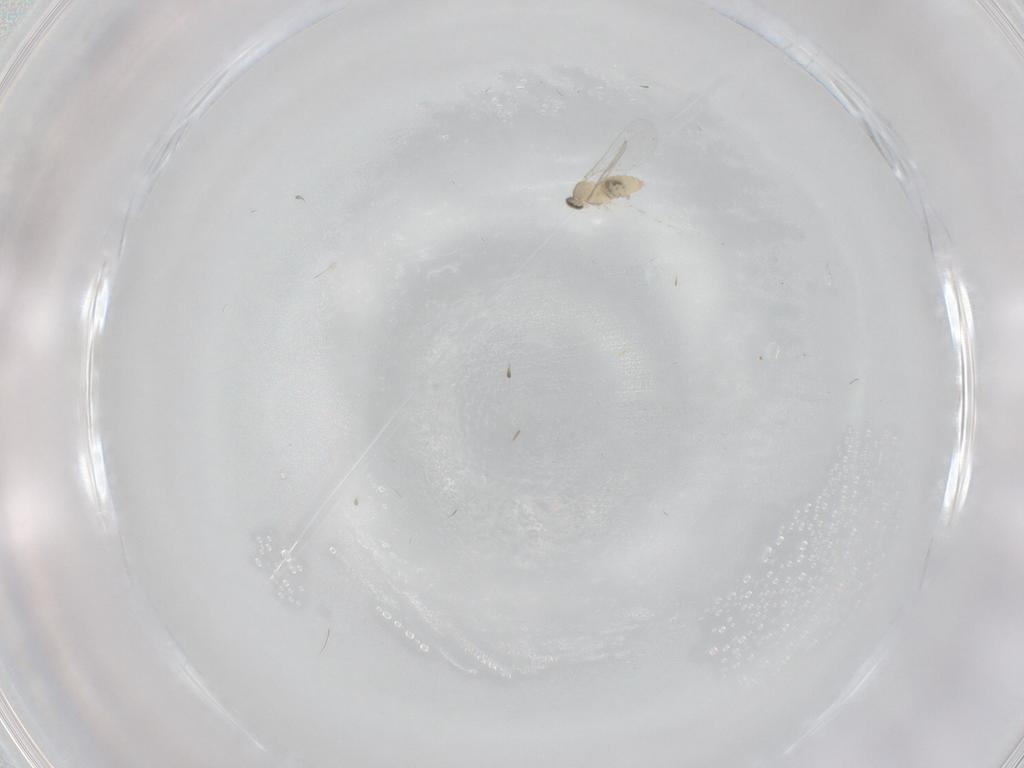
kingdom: Animalia
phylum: Arthropoda
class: Insecta
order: Diptera
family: Cecidomyiidae
